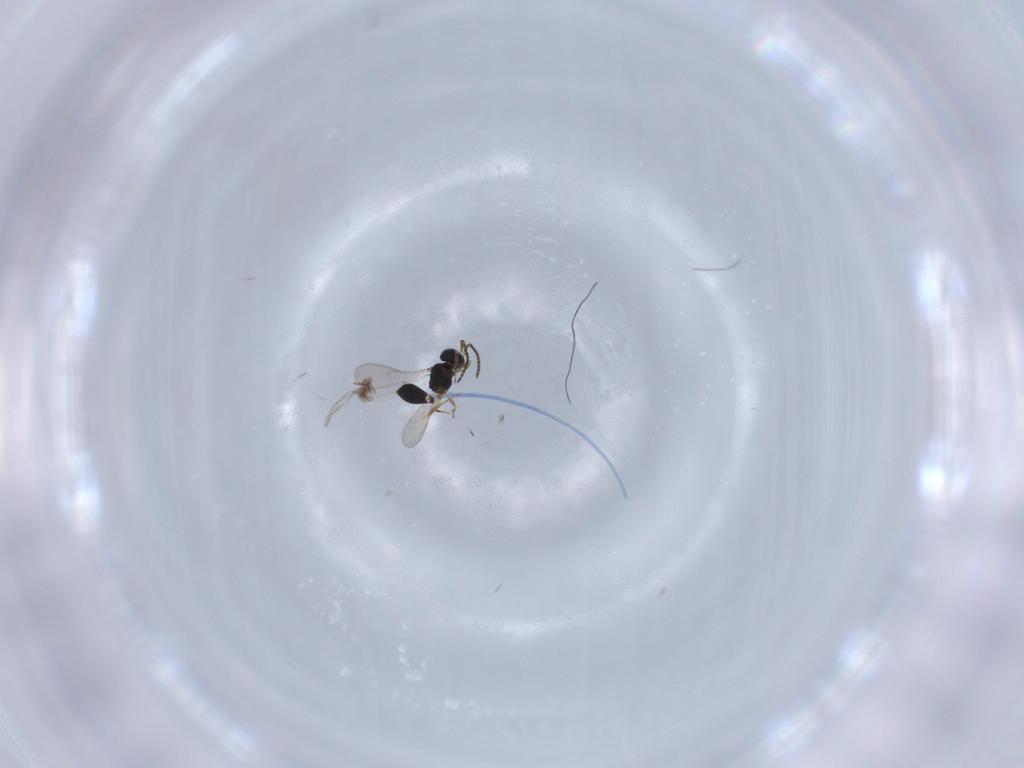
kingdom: Animalia
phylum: Arthropoda
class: Insecta
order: Hymenoptera
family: Scelionidae
